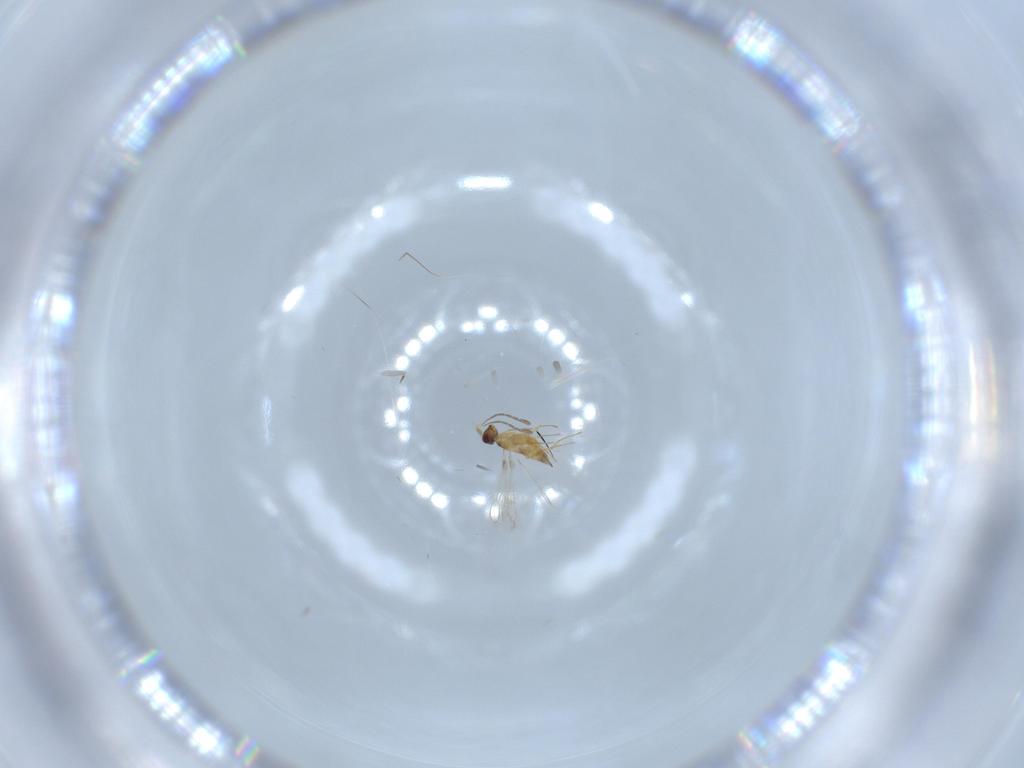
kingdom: Animalia
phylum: Arthropoda
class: Insecta
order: Hymenoptera
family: Mymaridae
